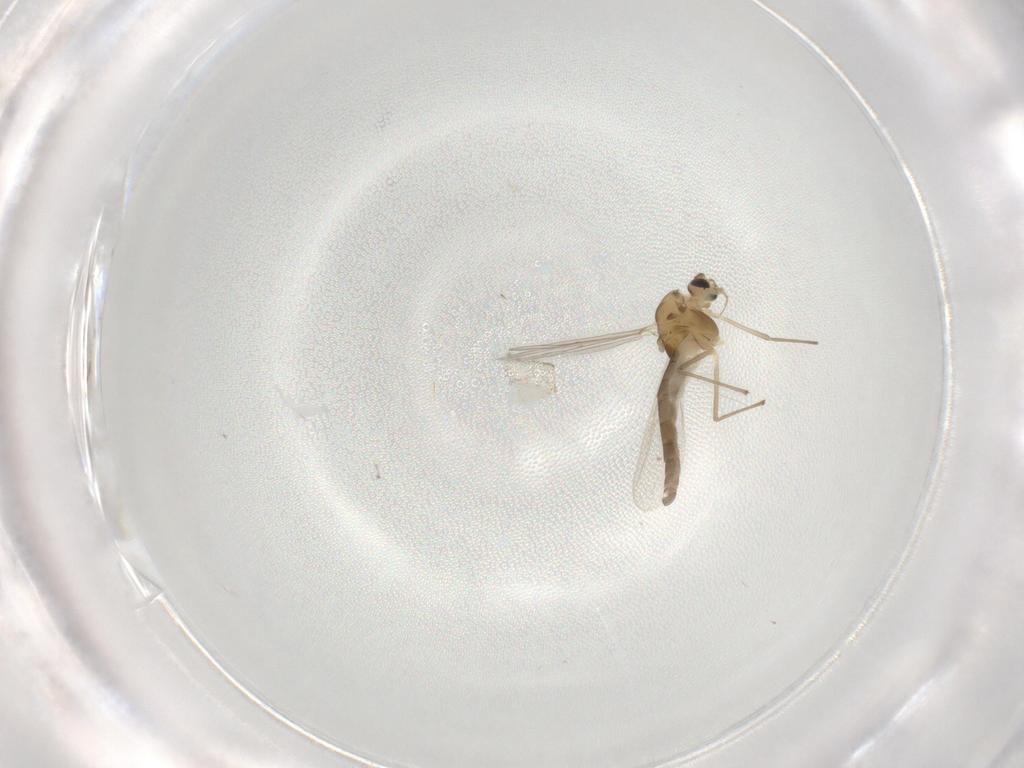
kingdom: Animalia
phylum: Arthropoda
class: Insecta
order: Diptera
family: Chironomidae
